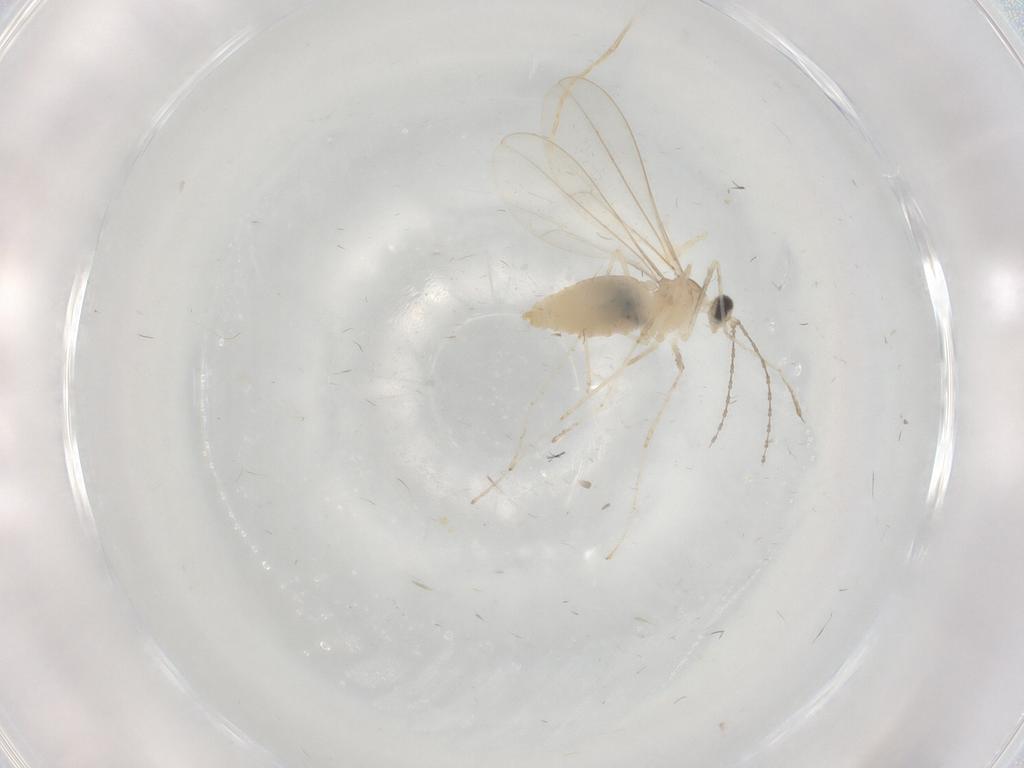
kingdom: Animalia
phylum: Arthropoda
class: Insecta
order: Diptera
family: Cecidomyiidae
